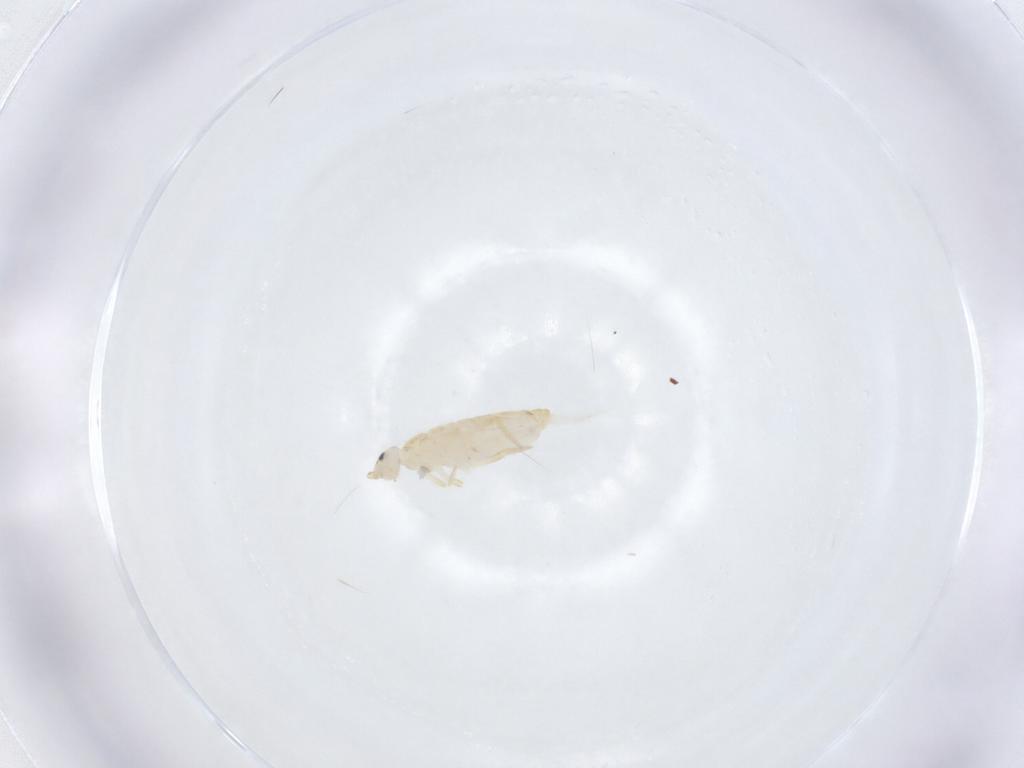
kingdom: Animalia
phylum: Arthropoda
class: Collembola
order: Entomobryomorpha
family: Entomobryidae
